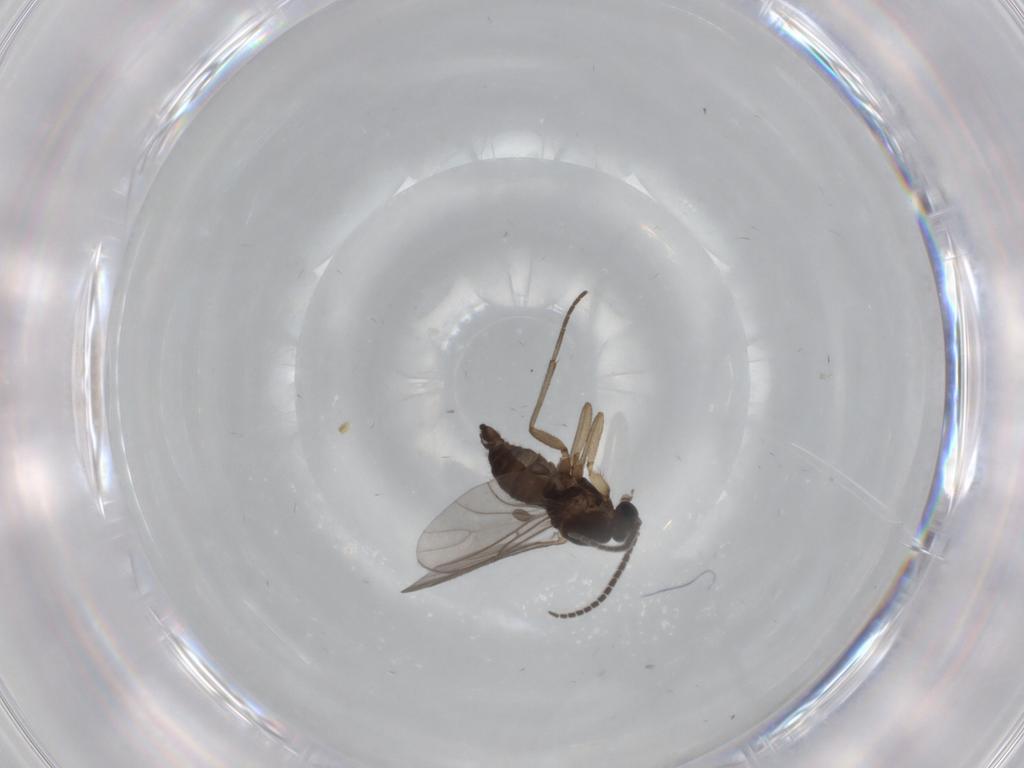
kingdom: Animalia
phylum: Arthropoda
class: Insecta
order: Diptera
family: Sciaridae
